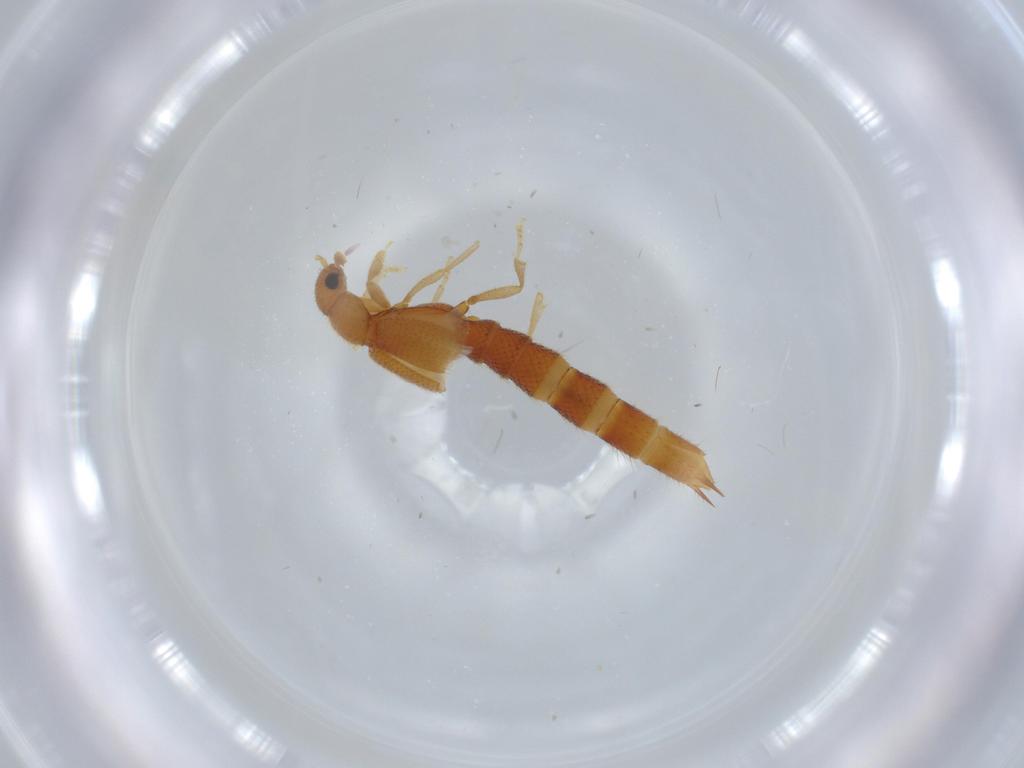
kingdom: Animalia
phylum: Arthropoda
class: Insecta
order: Coleoptera
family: Staphylinidae
